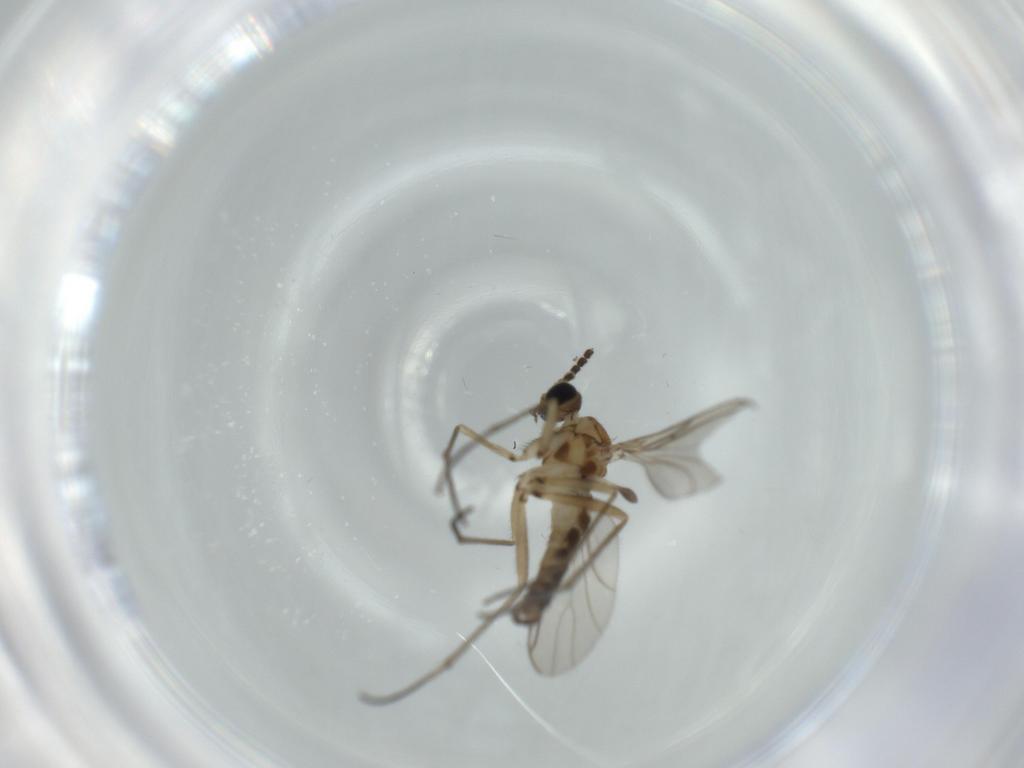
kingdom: Animalia
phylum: Arthropoda
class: Insecta
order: Diptera
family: Sciaridae
